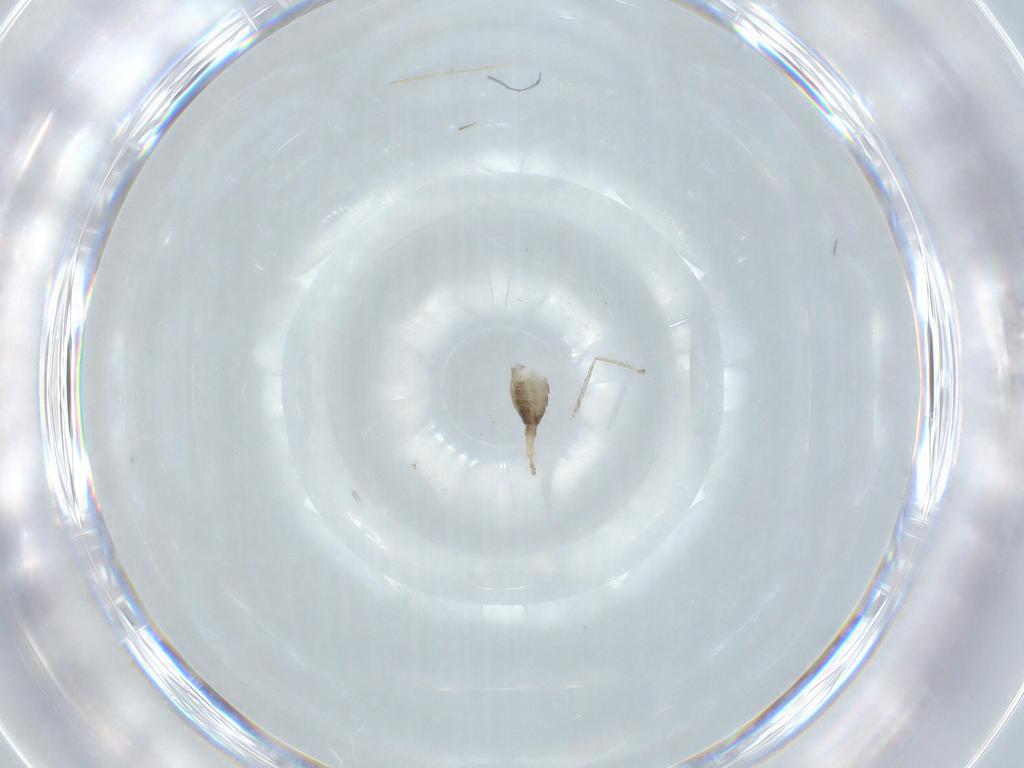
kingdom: Animalia
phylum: Arthropoda
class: Insecta
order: Diptera
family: Cecidomyiidae
